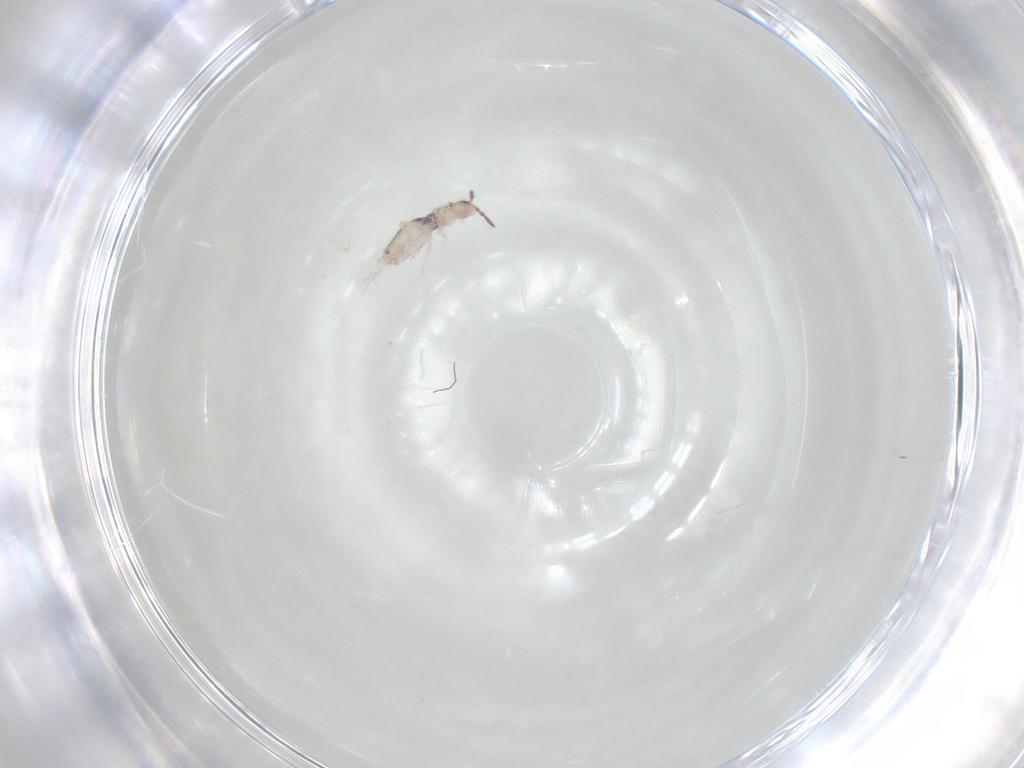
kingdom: Animalia
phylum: Arthropoda
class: Collembola
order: Entomobryomorpha
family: Entomobryidae
